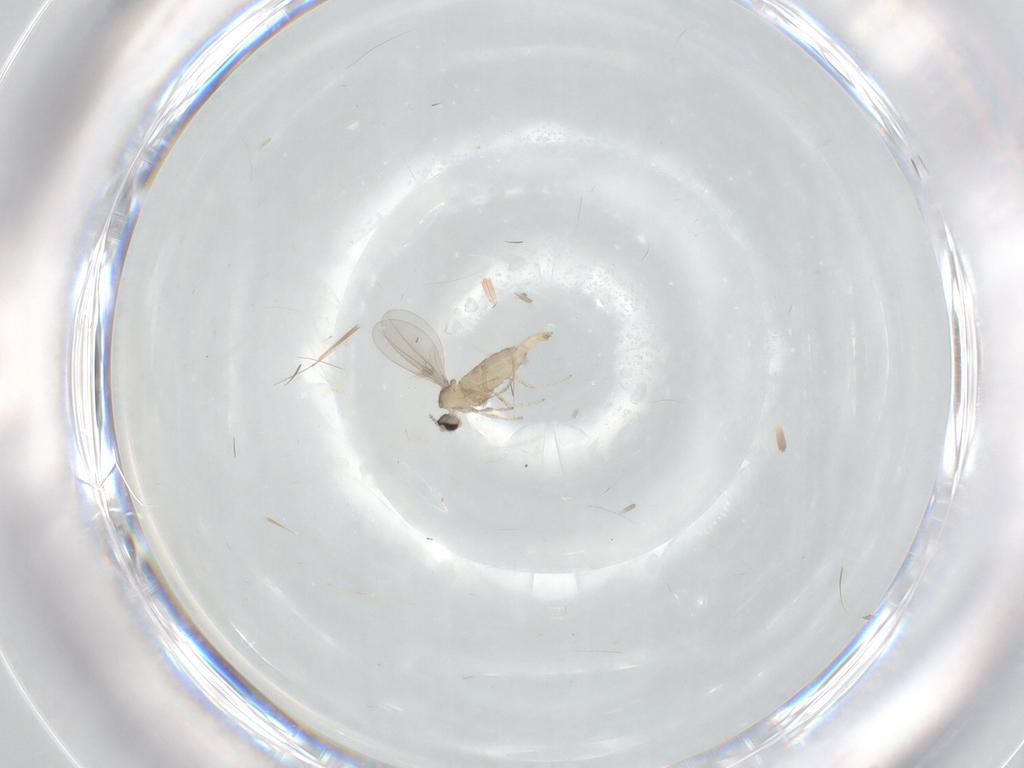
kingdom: Animalia
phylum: Arthropoda
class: Insecta
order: Diptera
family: Cecidomyiidae
